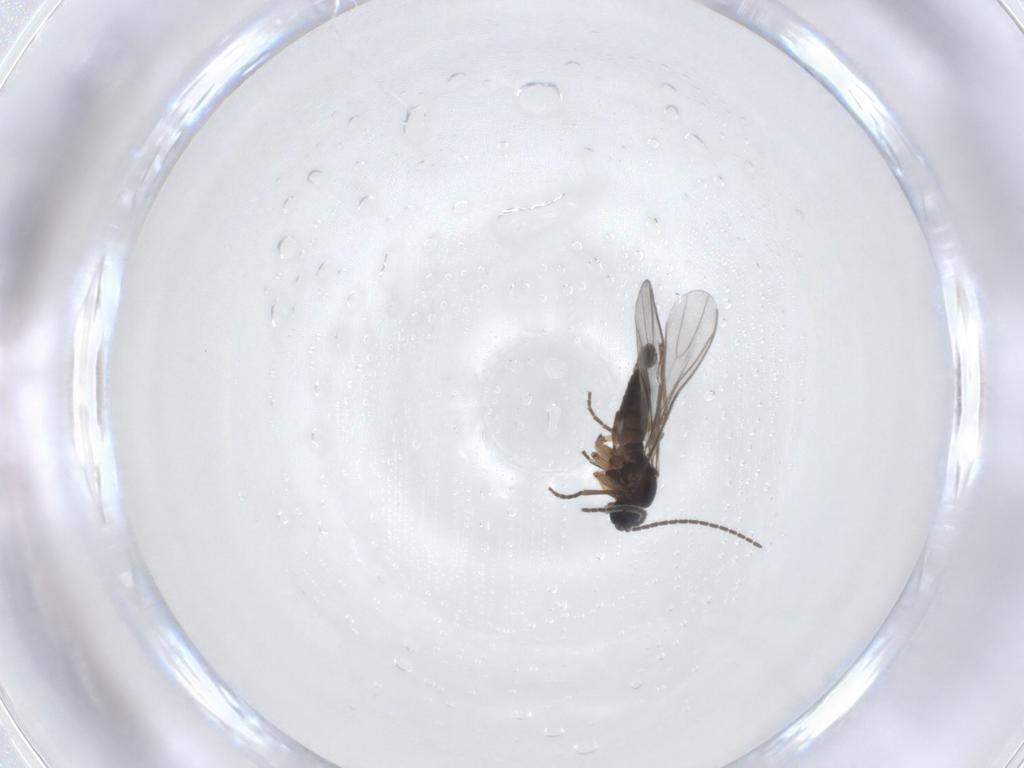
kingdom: Animalia
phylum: Arthropoda
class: Insecta
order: Diptera
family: Sciaridae
